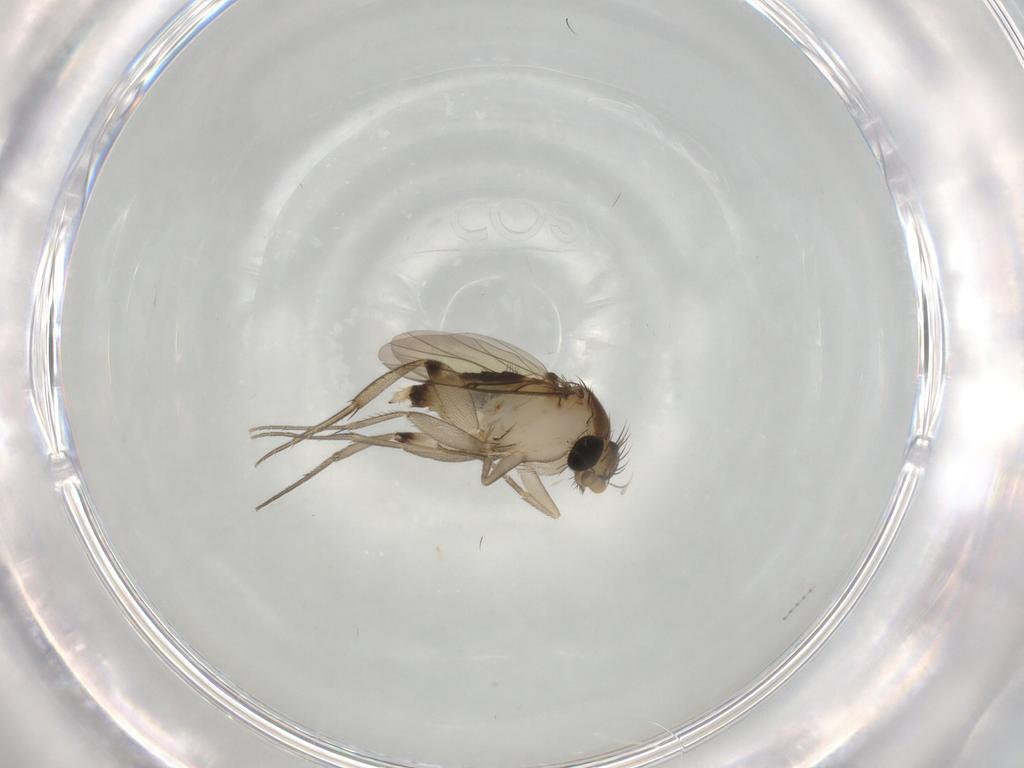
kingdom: Animalia
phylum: Arthropoda
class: Insecta
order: Diptera
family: Phoridae
